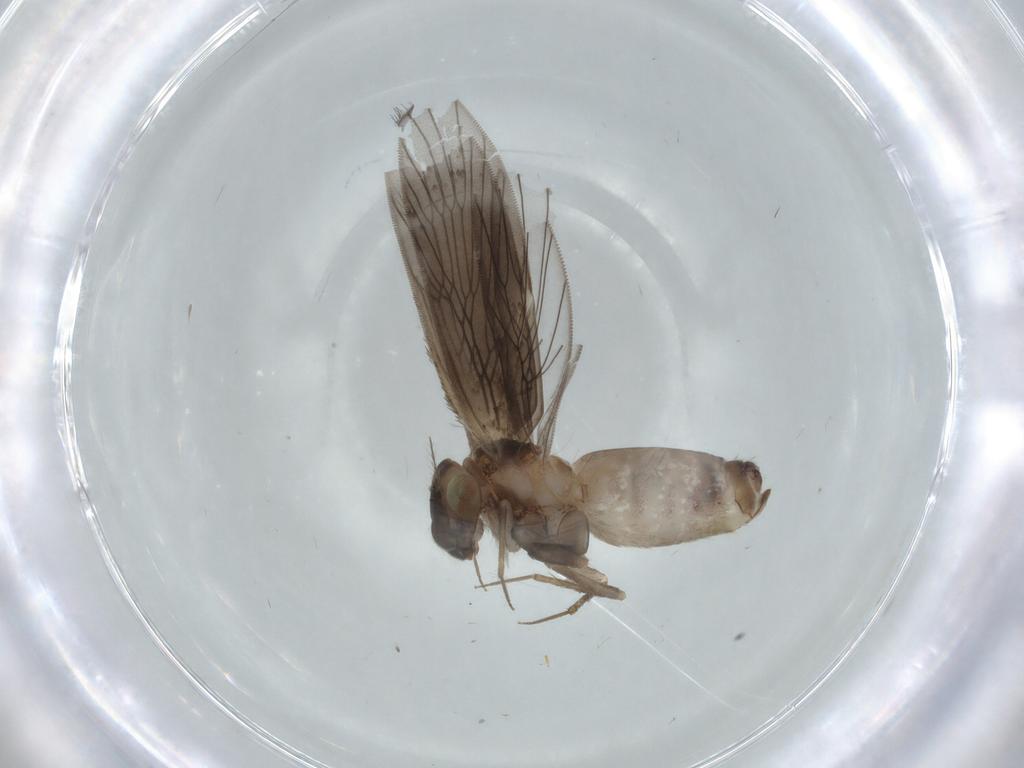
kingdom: Animalia
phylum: Arthropoda
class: Insecta
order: Psocodea
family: Lepidopsocidae
